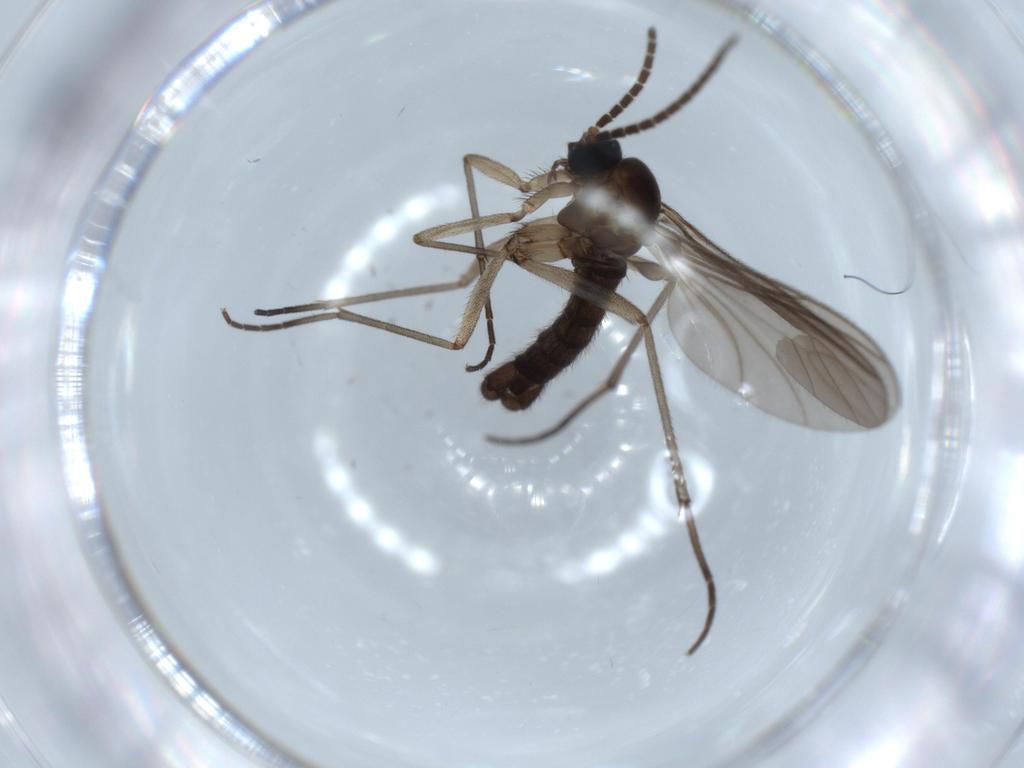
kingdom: Animalia
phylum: Arthropoda
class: Insecta
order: Diptera
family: Sciaridae
